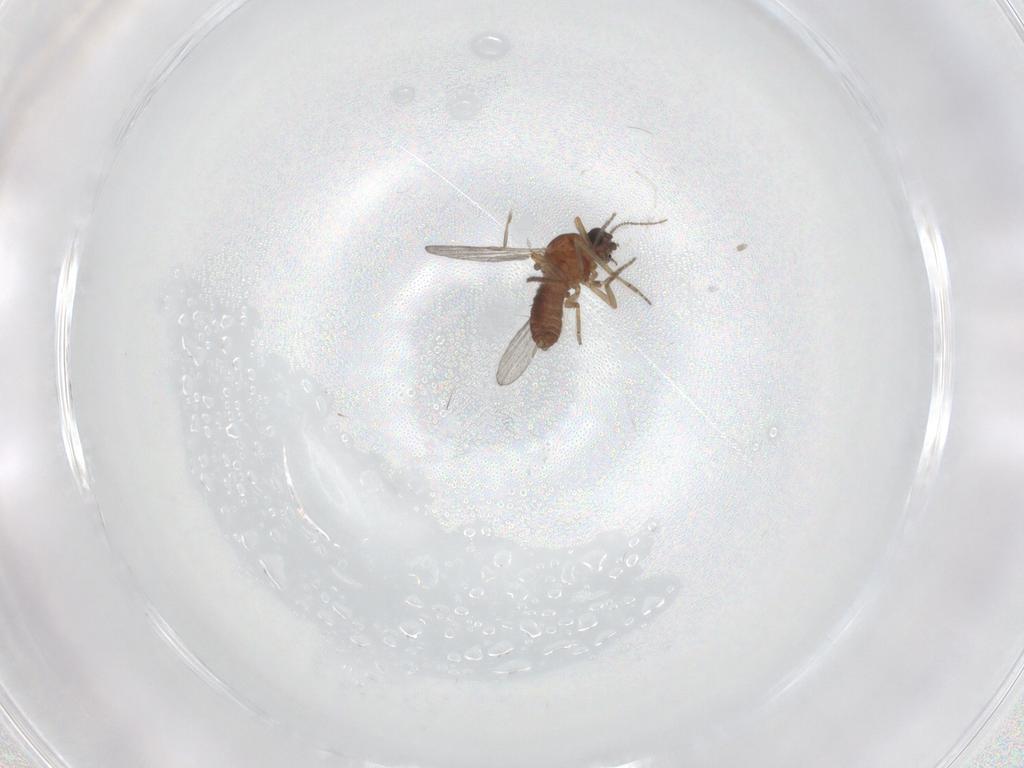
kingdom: Animalia
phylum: Arthropoda
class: Insecta
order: Diptera
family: Ceratopogonidae
